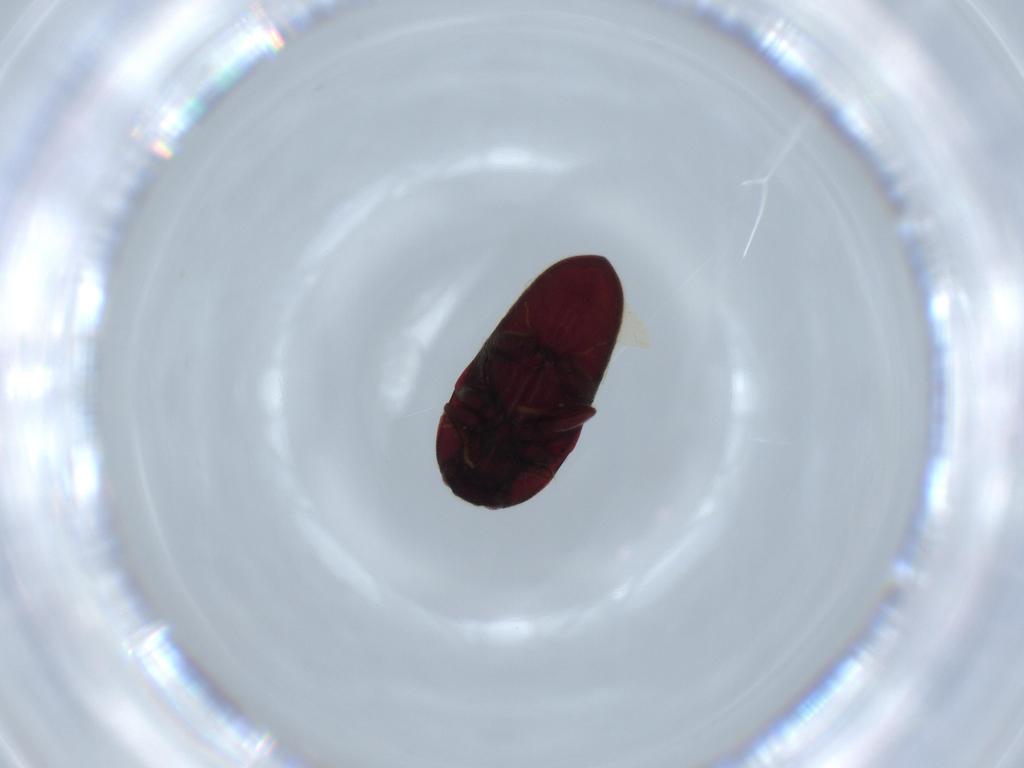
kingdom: Animalia
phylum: Arthropoda
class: Insecta
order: Coleoptera
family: Throscidae
